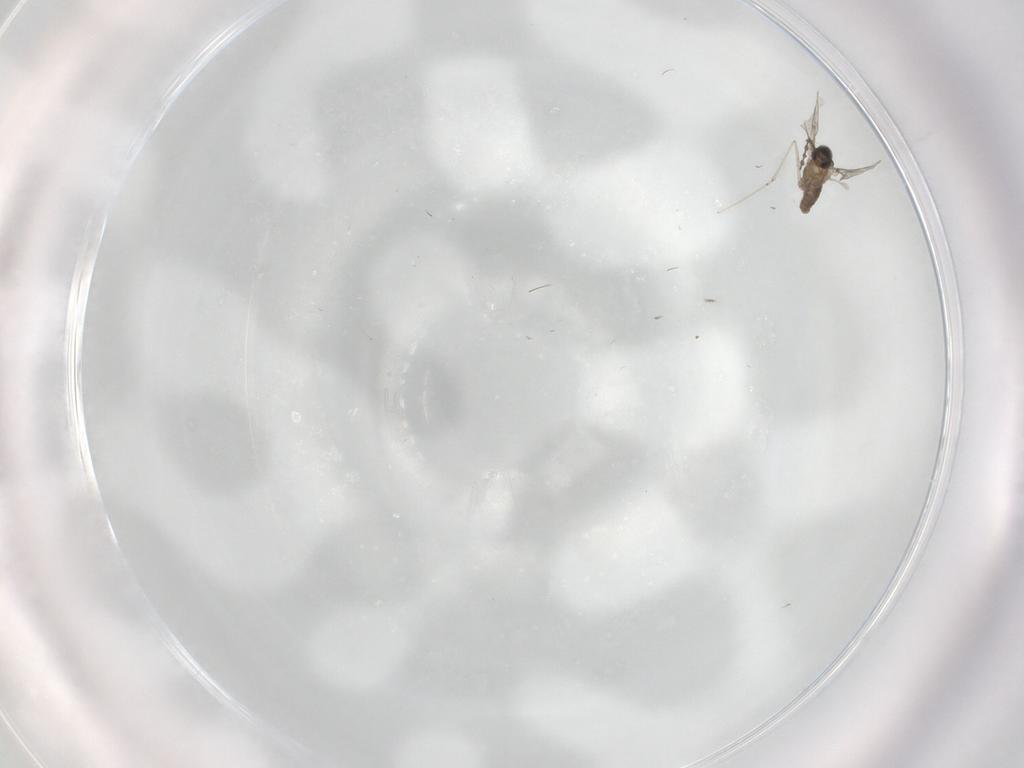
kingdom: Animalia
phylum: Arthropoda
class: Insecta
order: Diptera
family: Cecidomyiidae
